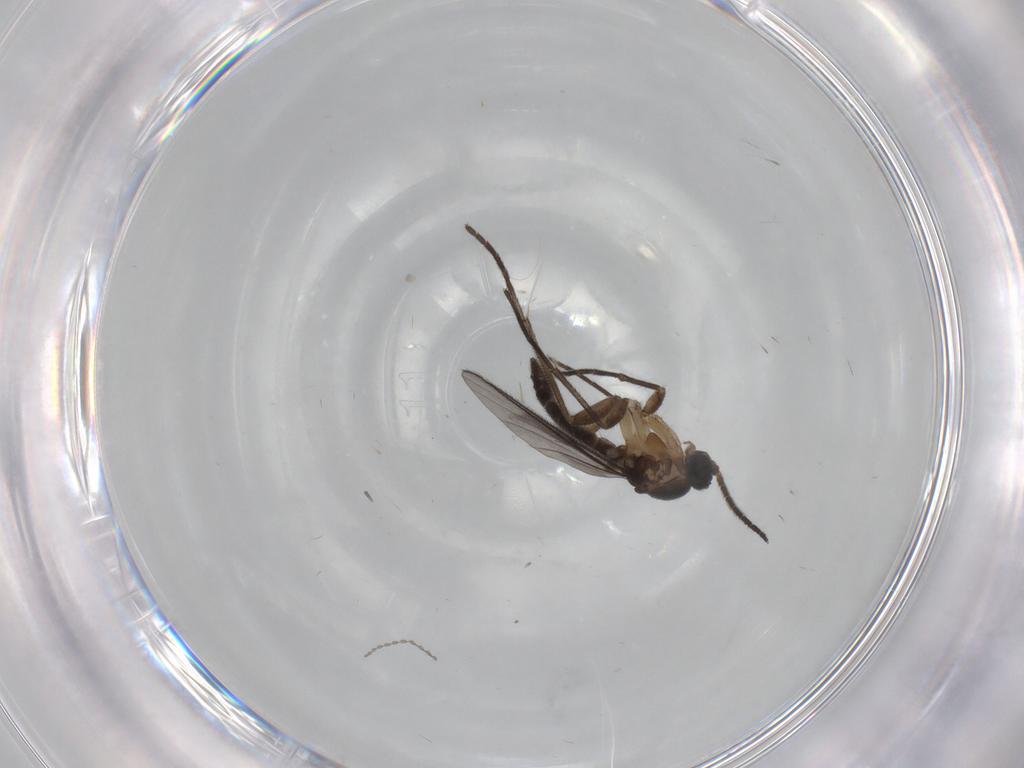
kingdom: Animalia
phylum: Arthropoda
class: Insecta
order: Diptera
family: Sciaridae
